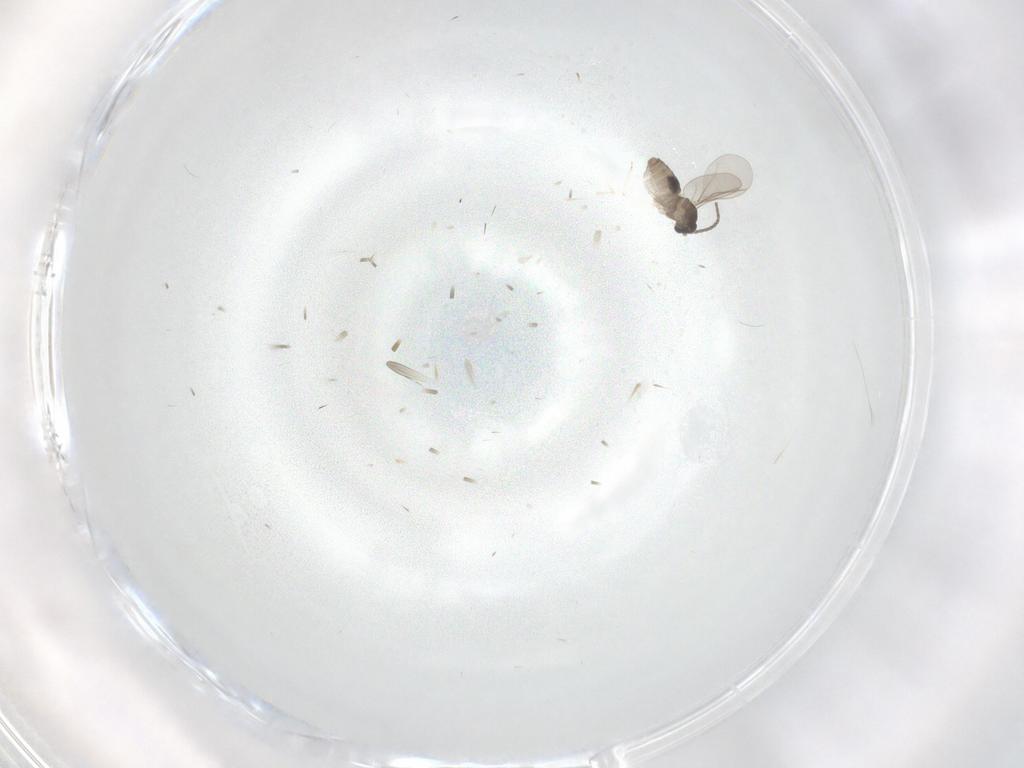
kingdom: Animalia
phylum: Arthropoda
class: Insecta
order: Diptera
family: Cecidomyiidae
